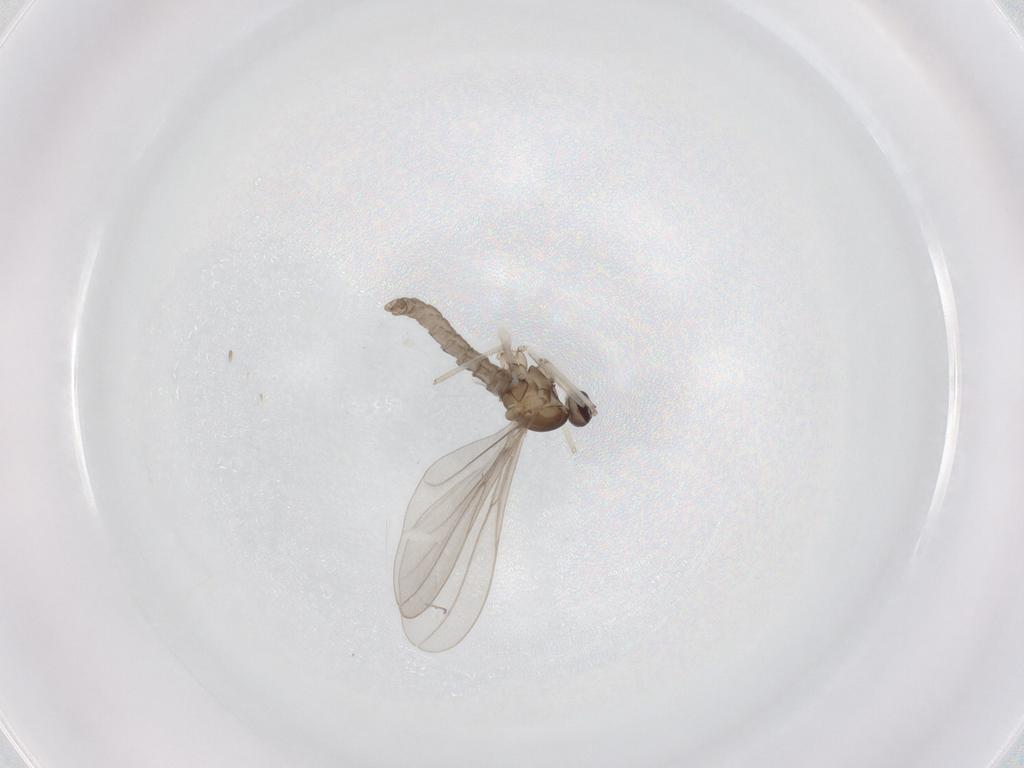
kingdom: Animalia
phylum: Arthropoda
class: Insecta
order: Diptera
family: Cecidomyiidae
